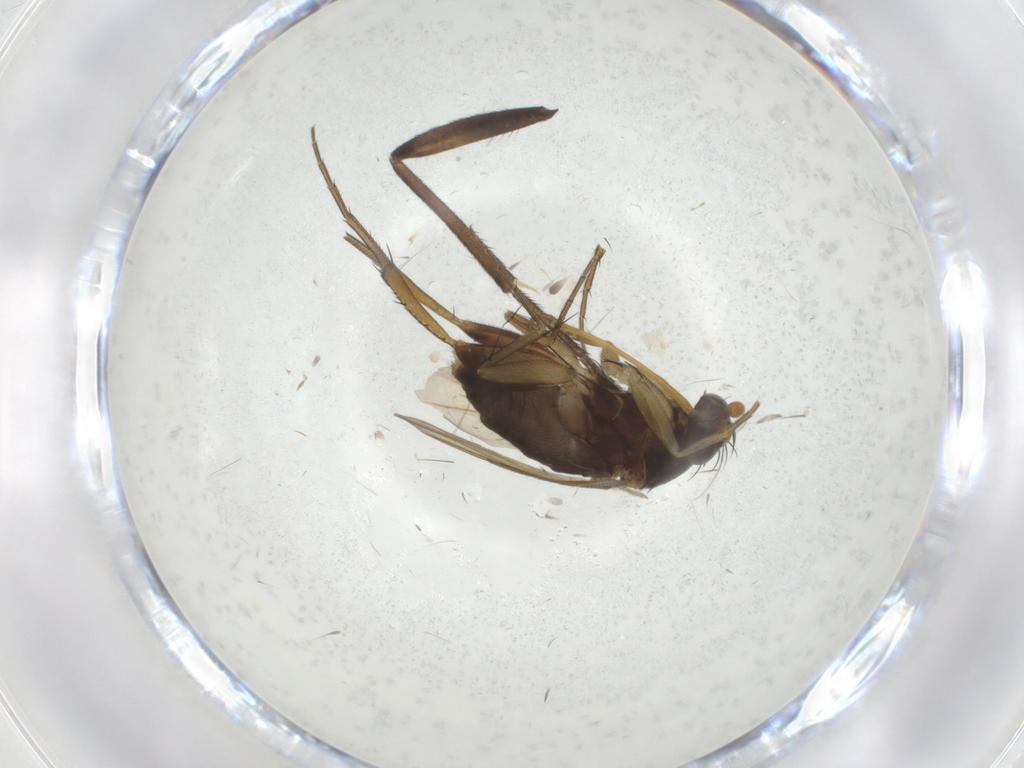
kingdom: Animalia
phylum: Arthropoda
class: Insecta
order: Diptera
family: Phoridae
